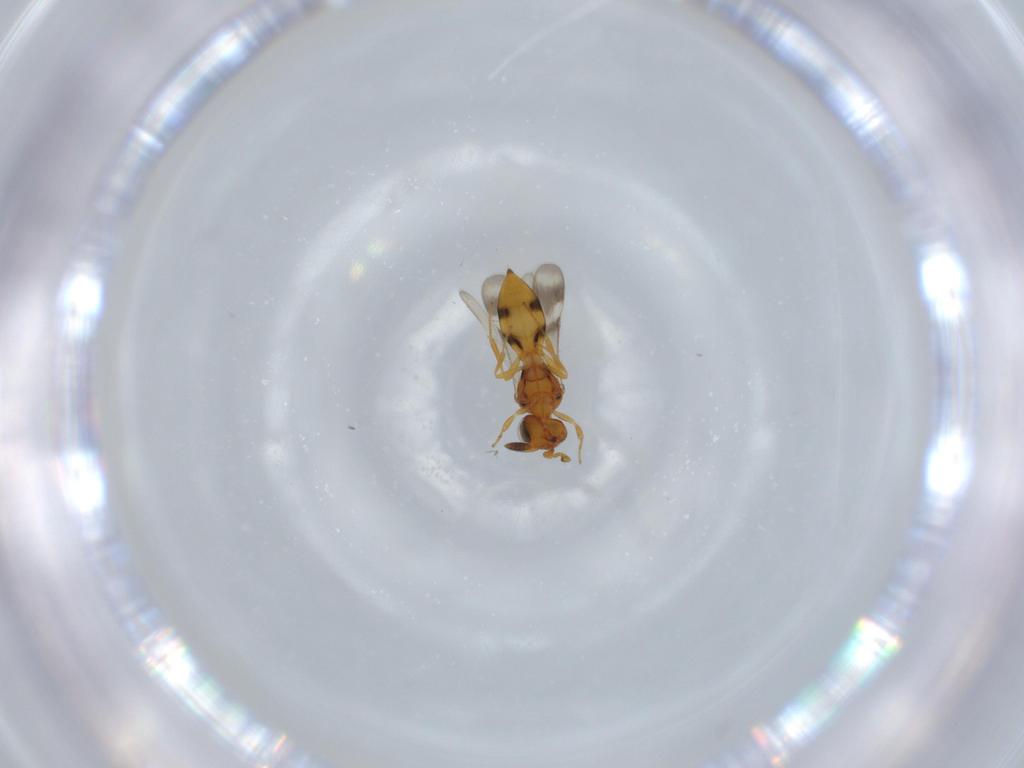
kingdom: Animalia
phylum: Arthropoda
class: Insecta
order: Hymenoptera
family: Scelionidae
